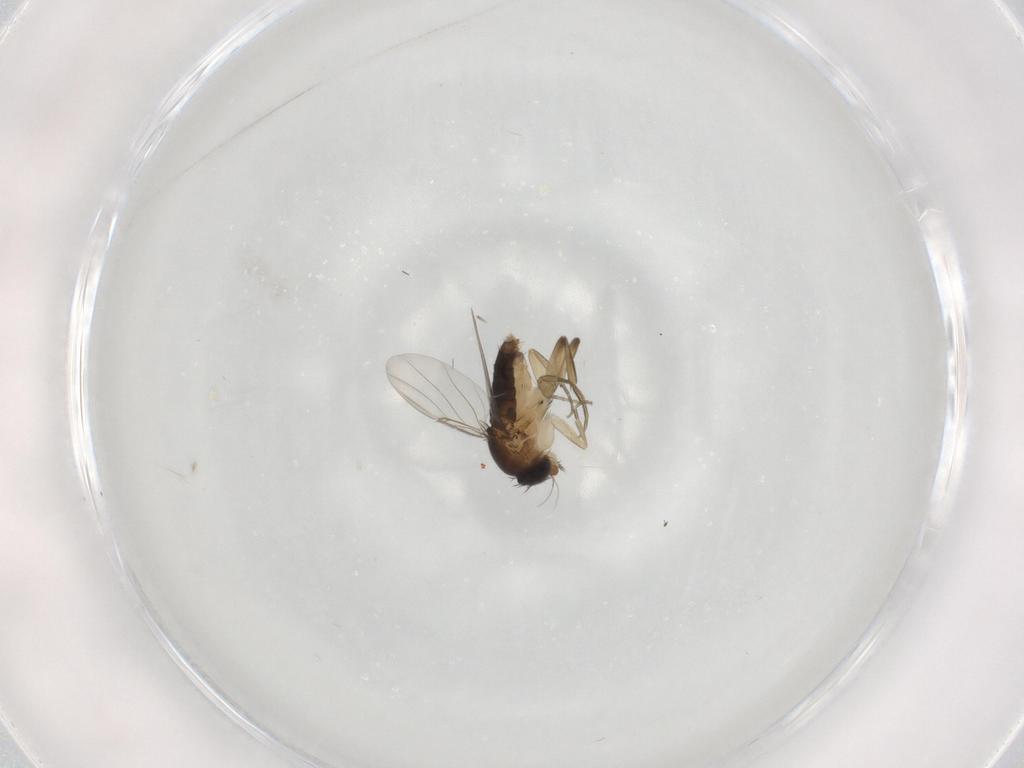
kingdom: Animalia
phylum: Arthropoda
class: Insecta
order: Diptera
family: Phoridae
